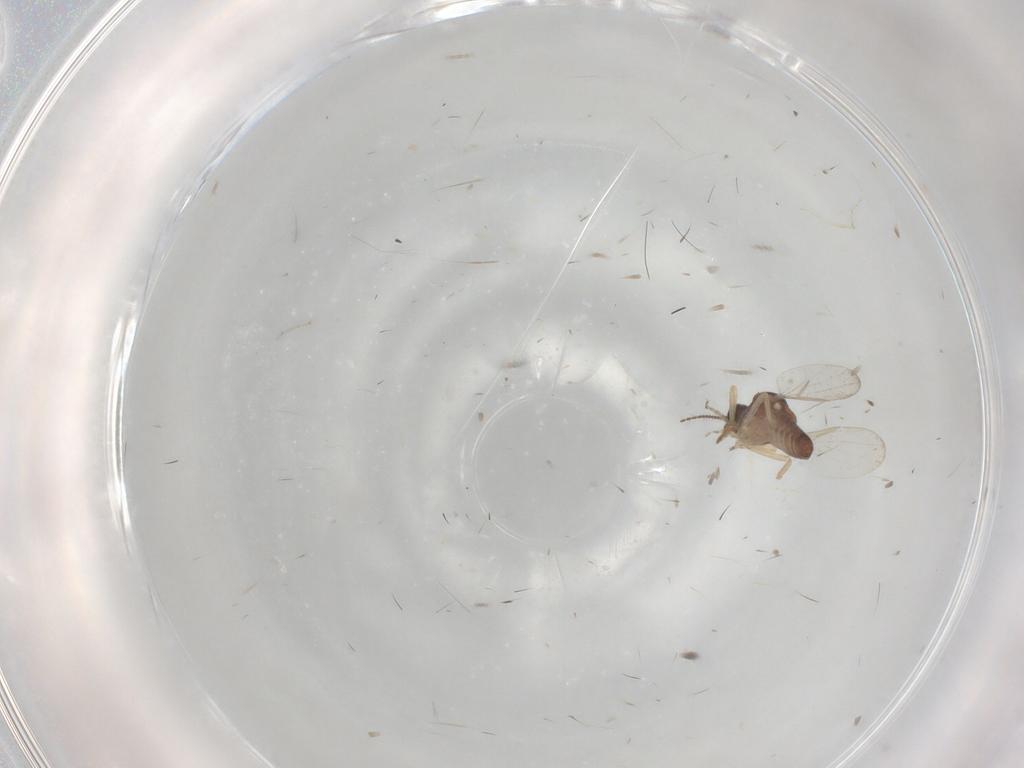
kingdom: Animalia
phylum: Arthropoda
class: Insecta
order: Diptera
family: Ceratopogonidae
